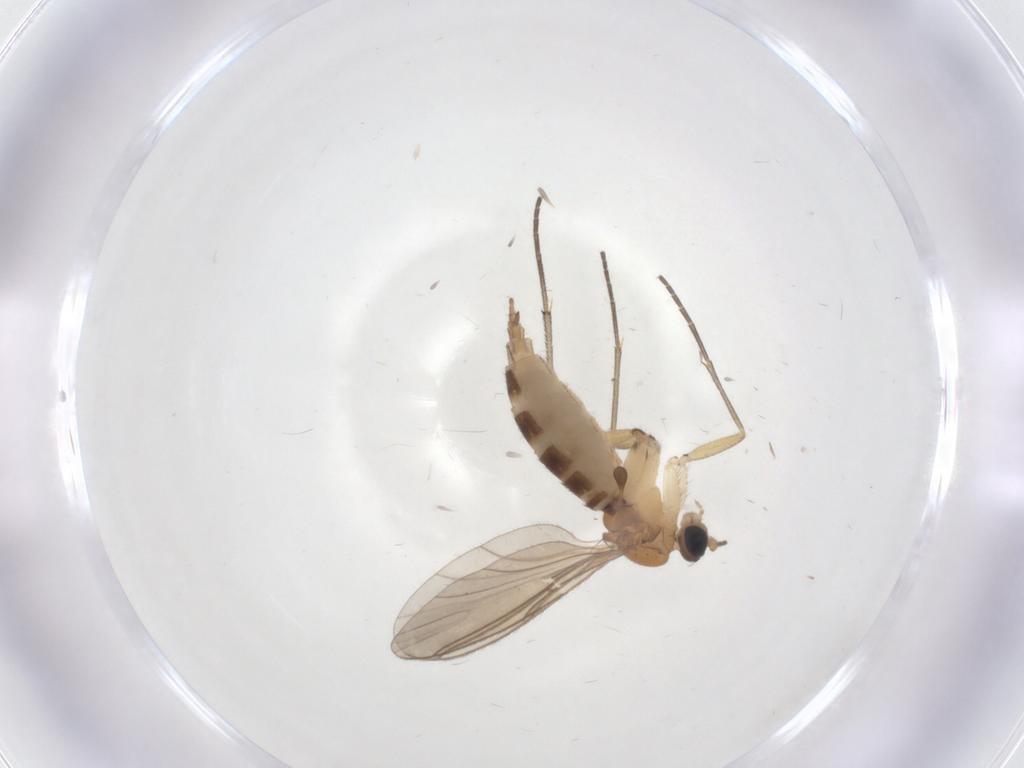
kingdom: Animalia
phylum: Arthropoda
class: Insecta
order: Diptera
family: Sciaridae
